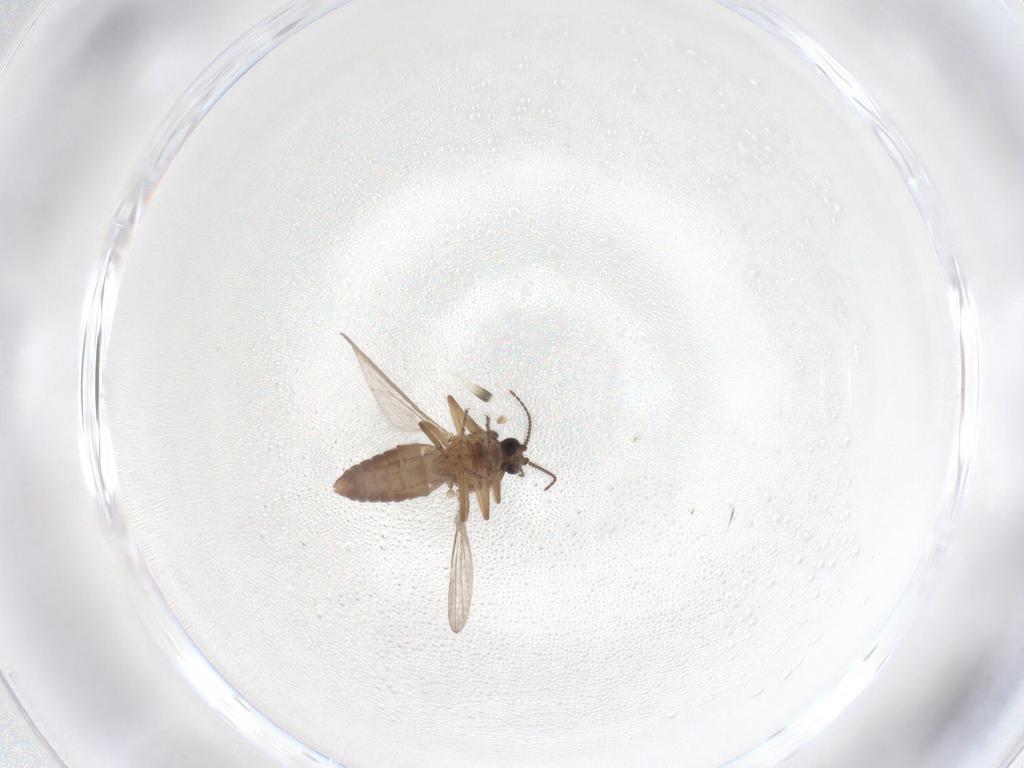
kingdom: Animalia
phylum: Arthropoda
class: Insecta
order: Diptera
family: Ceratopogonidae
